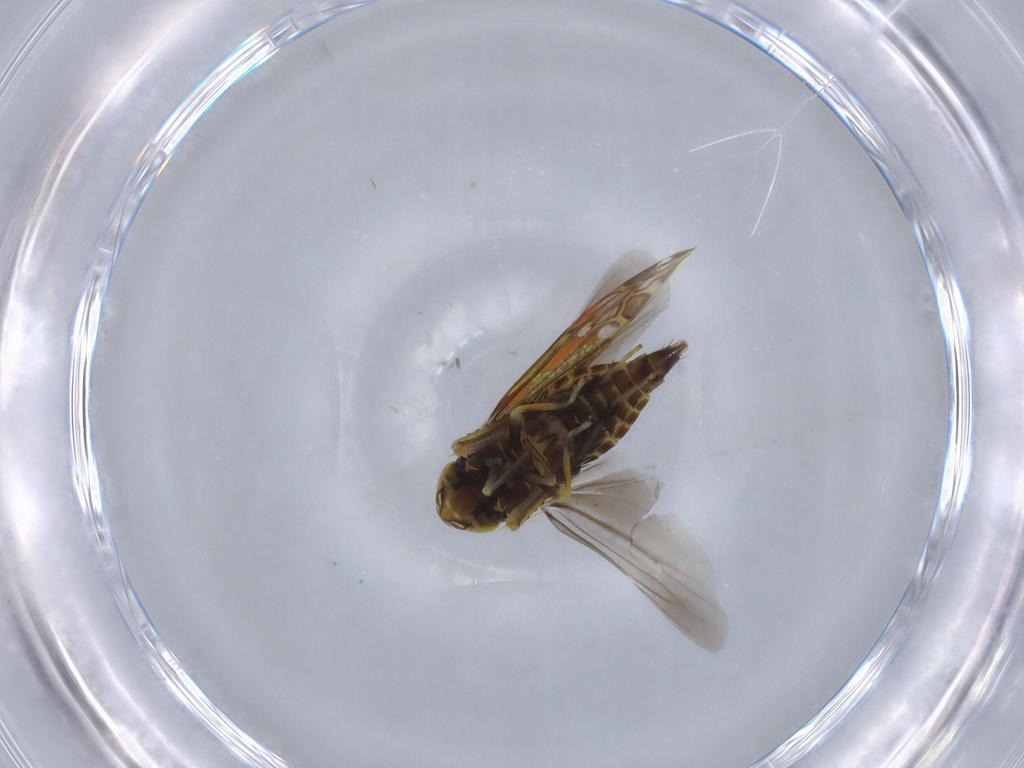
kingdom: Animalia
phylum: Arthropoda
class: Insecta
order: Hemiptera
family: Cicadellidae
